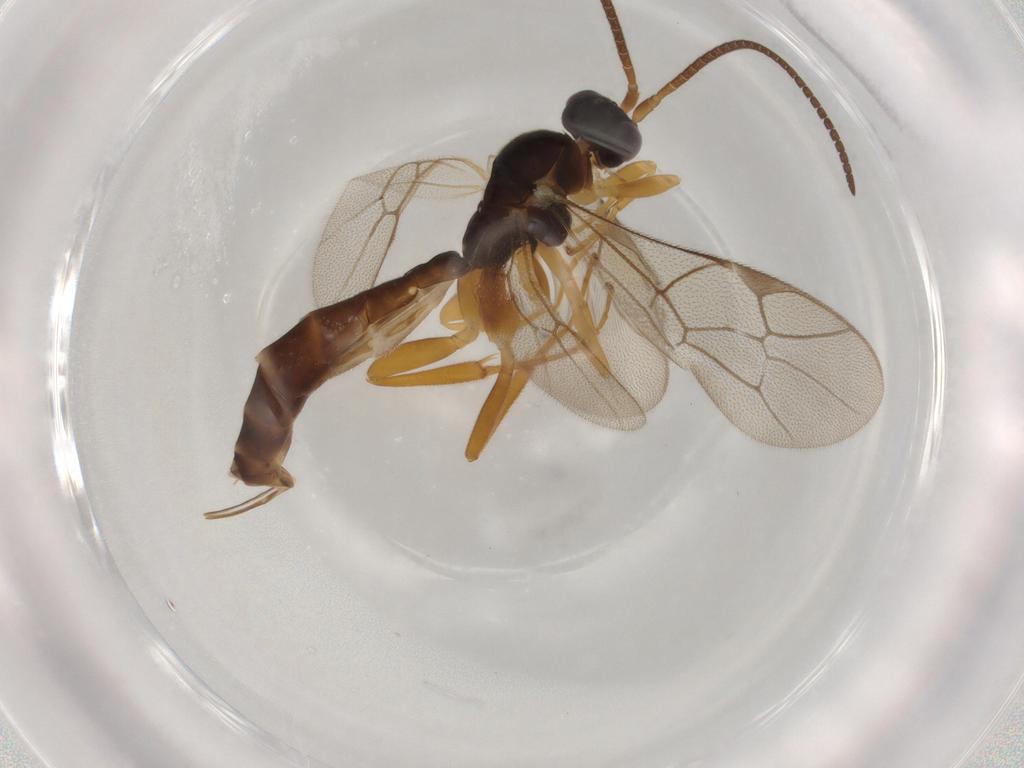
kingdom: Animalia
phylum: Arthropoda
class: Insecta
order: Hymenoptera
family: Ichneumonidae
